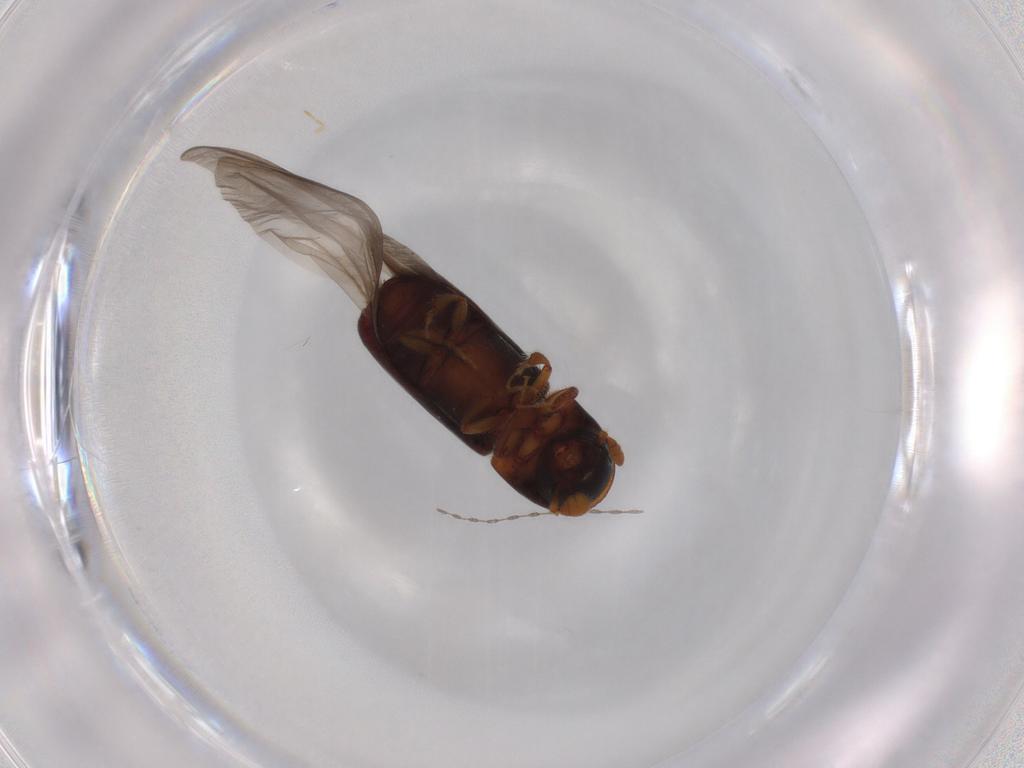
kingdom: Animalia
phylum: Arthropoda
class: Insecta
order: Coleoptera
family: Curculionidae
